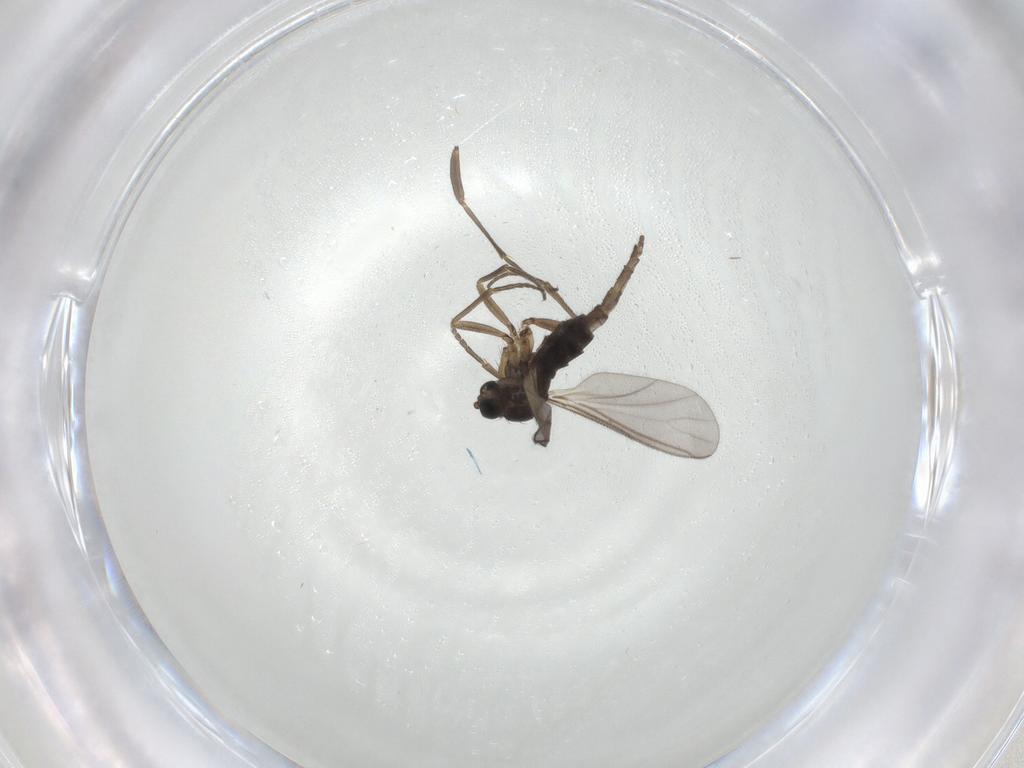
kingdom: Animalia
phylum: Arthropoda
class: Insecta
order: Diptera
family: Sciaridae
